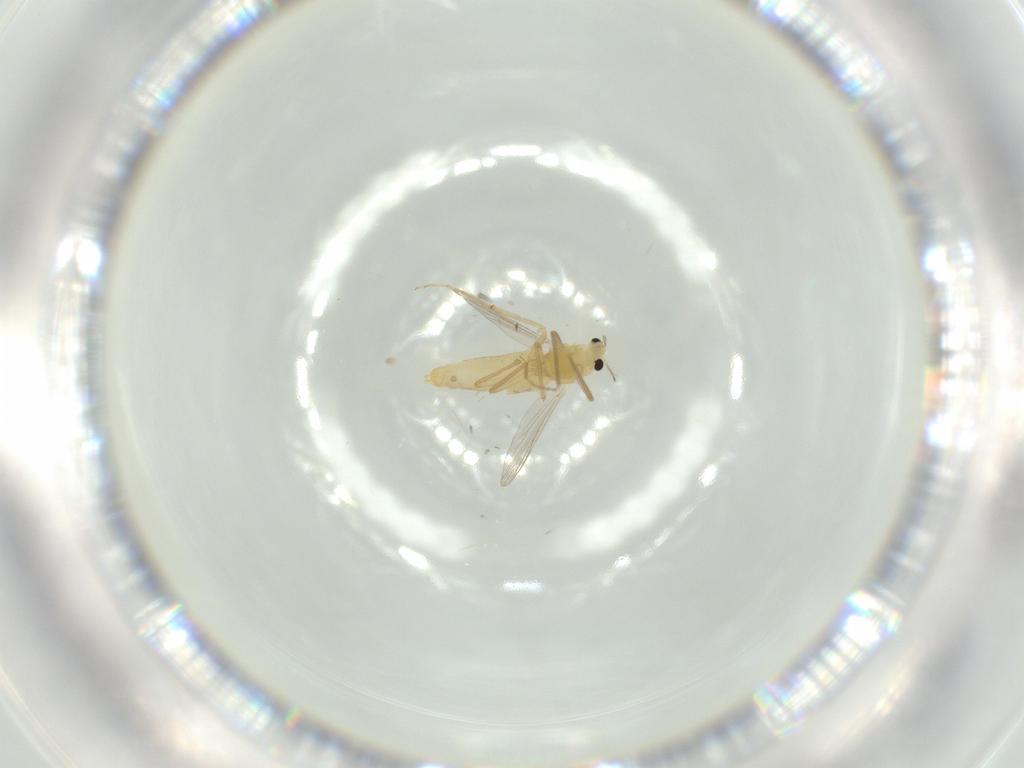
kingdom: Animalia
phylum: Arthropoda
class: Insecta
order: Diptera
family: Chironomidae
